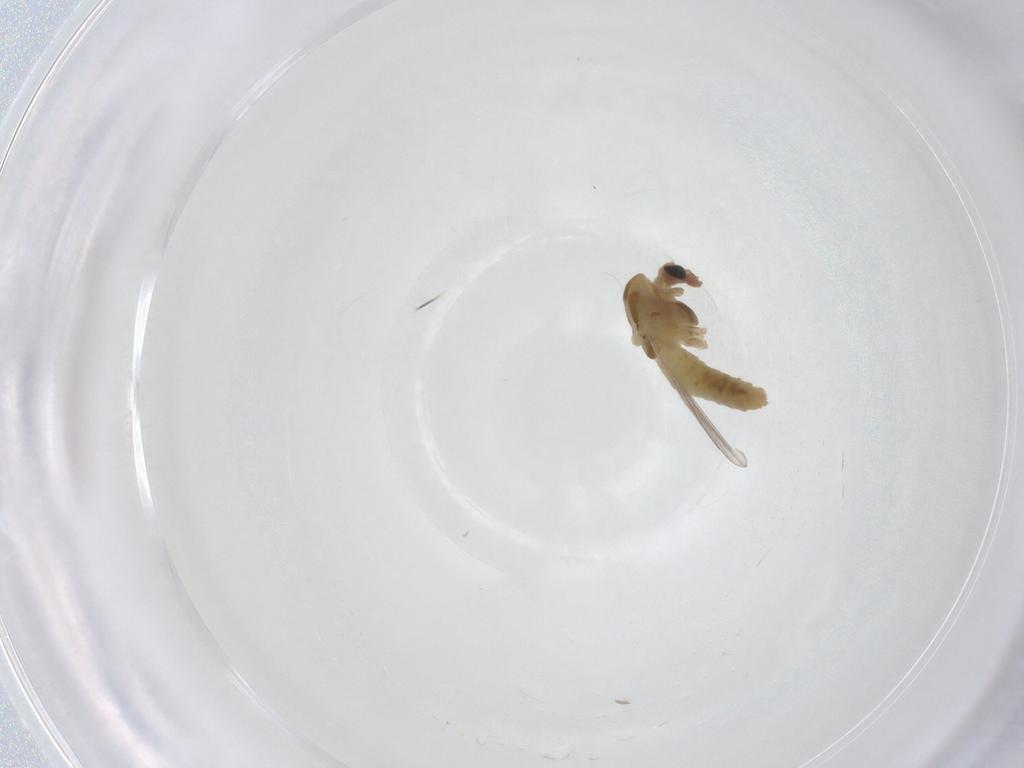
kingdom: Animalia
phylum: Arthropoda
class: Insecta
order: Diptera
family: Chironomidae
